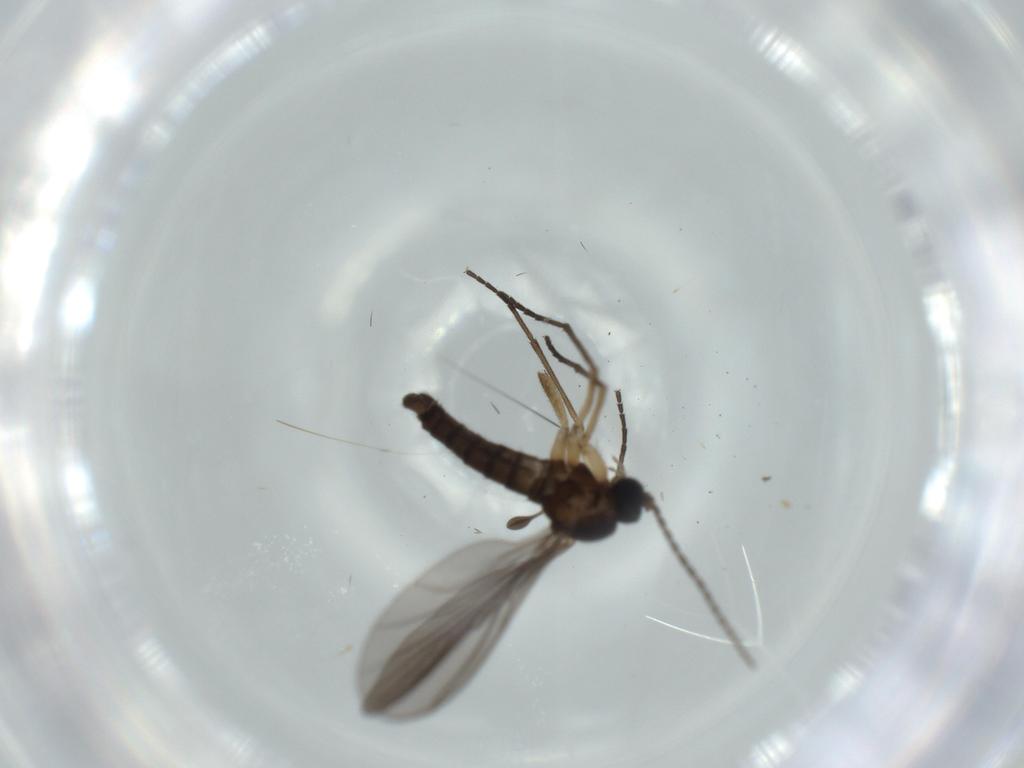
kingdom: Animalia
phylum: Arthropoda
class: Insecta
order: Diptera
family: Sciaridae
